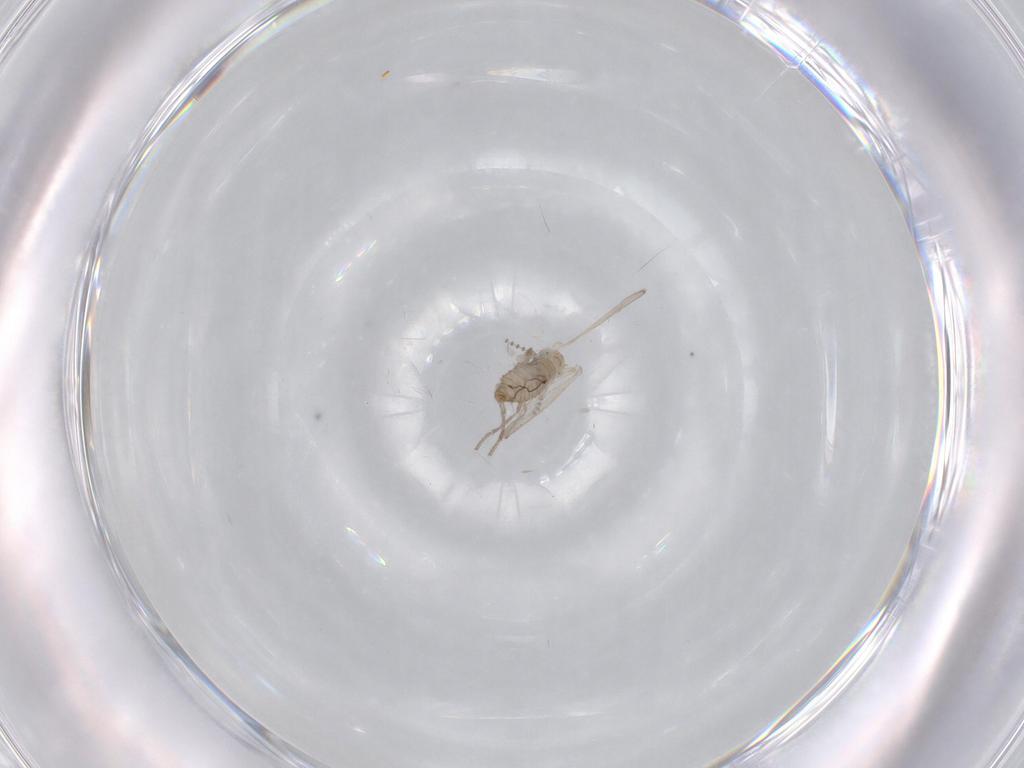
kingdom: Animalia
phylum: Arthropoda
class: Insecta
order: Diptera
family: Psychodidae
